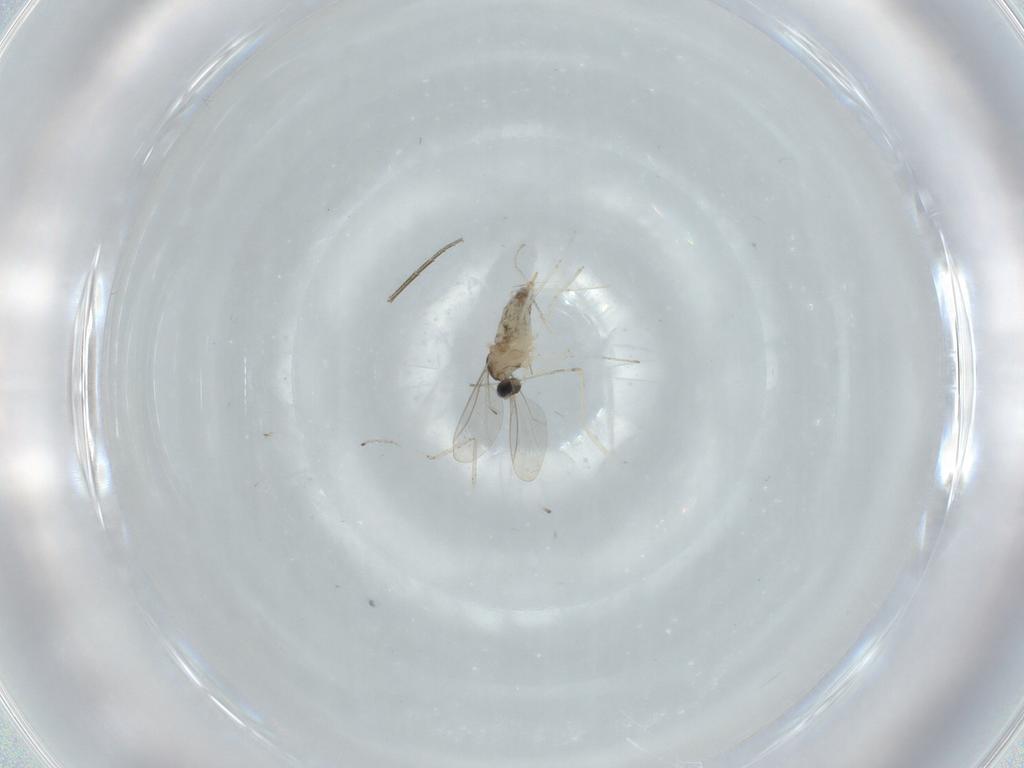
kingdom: Animalia
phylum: Arthropoda
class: Insecta
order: Diptera
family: Cecidomyiidae
